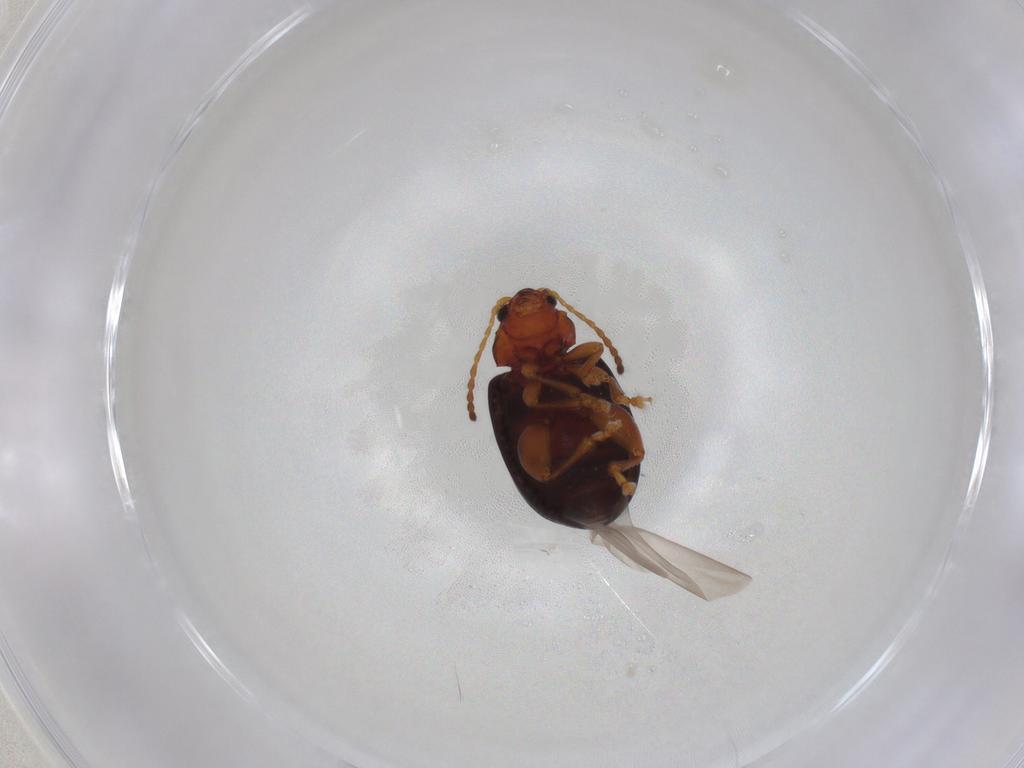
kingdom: Animalia
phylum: Arthropoda
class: Insecta
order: Coleoptera
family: Chrysomelidae
